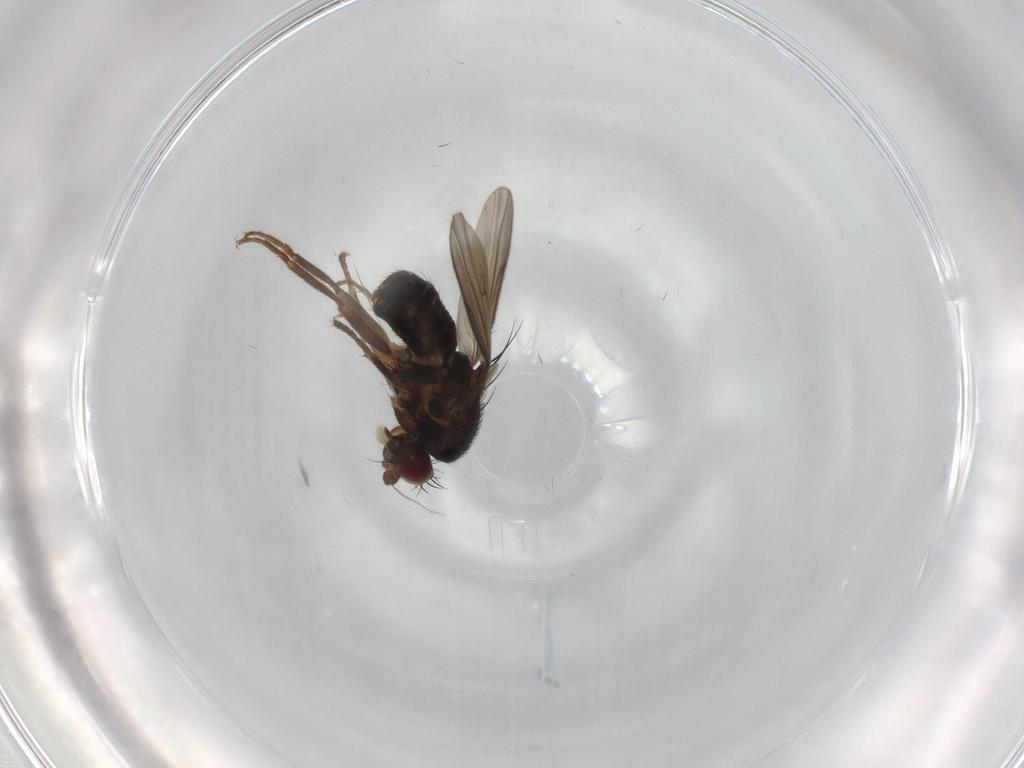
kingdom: Animalia
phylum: Arthropoda
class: Insecta
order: Diptera
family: Sphaeroceridae
